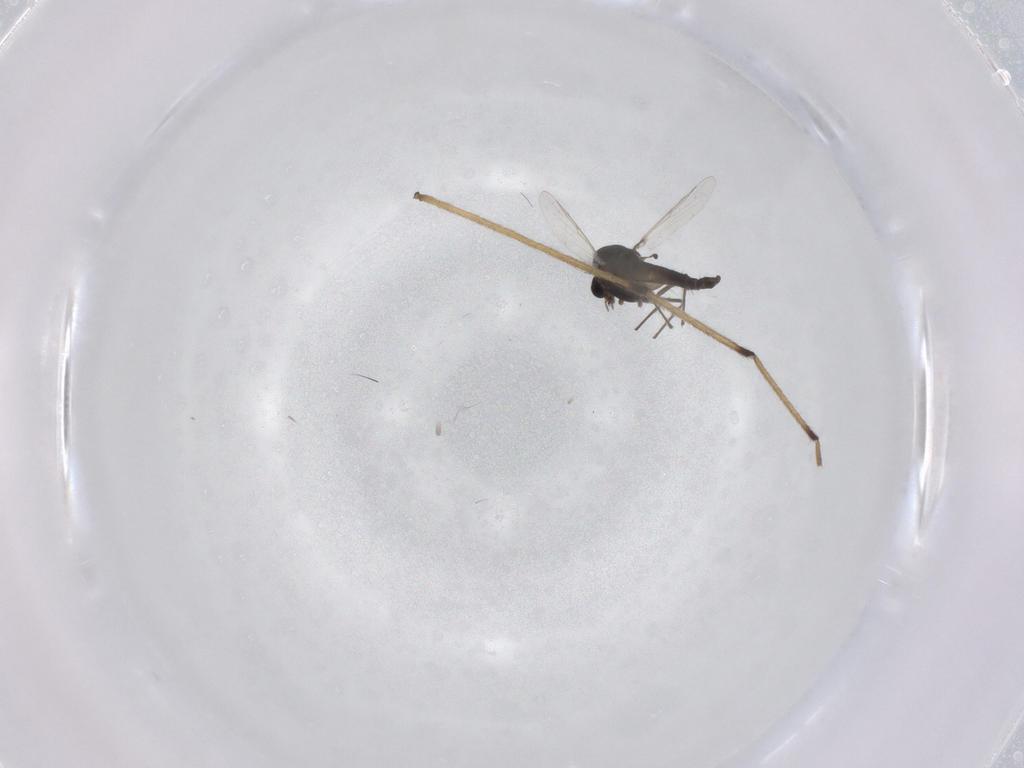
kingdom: Animalia
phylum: Arthropoda
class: Insecta
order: Diptera
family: Chironomidae
